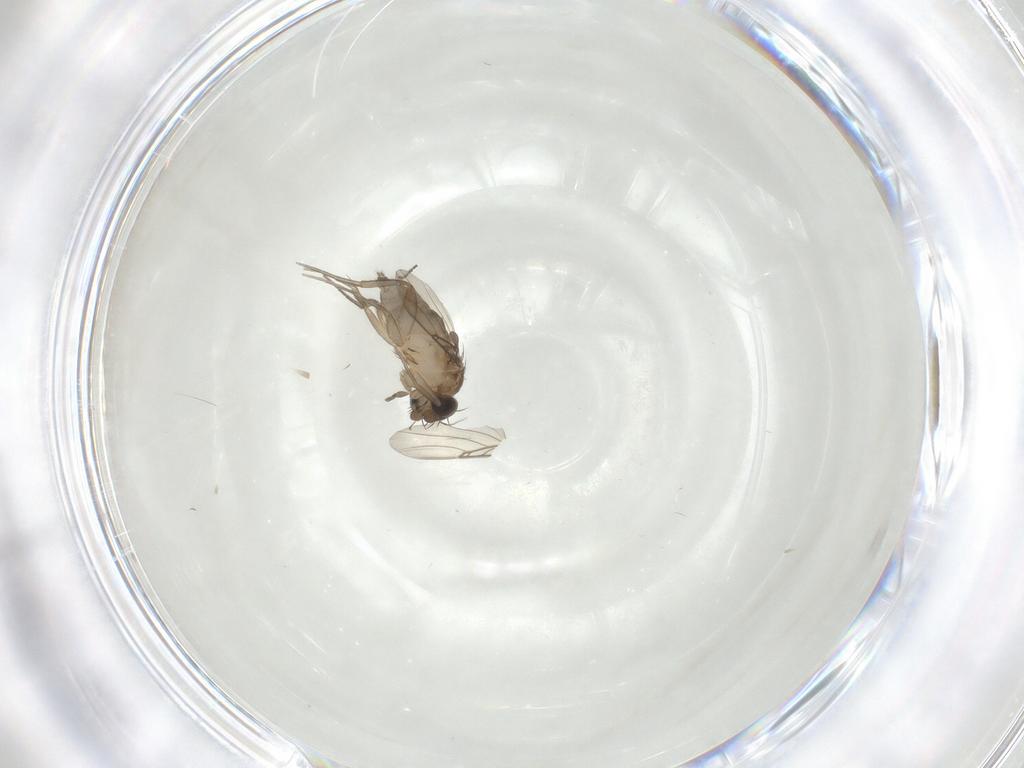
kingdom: Animalia
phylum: Arthropoda
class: Insecta
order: Diptera
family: Phoridae
